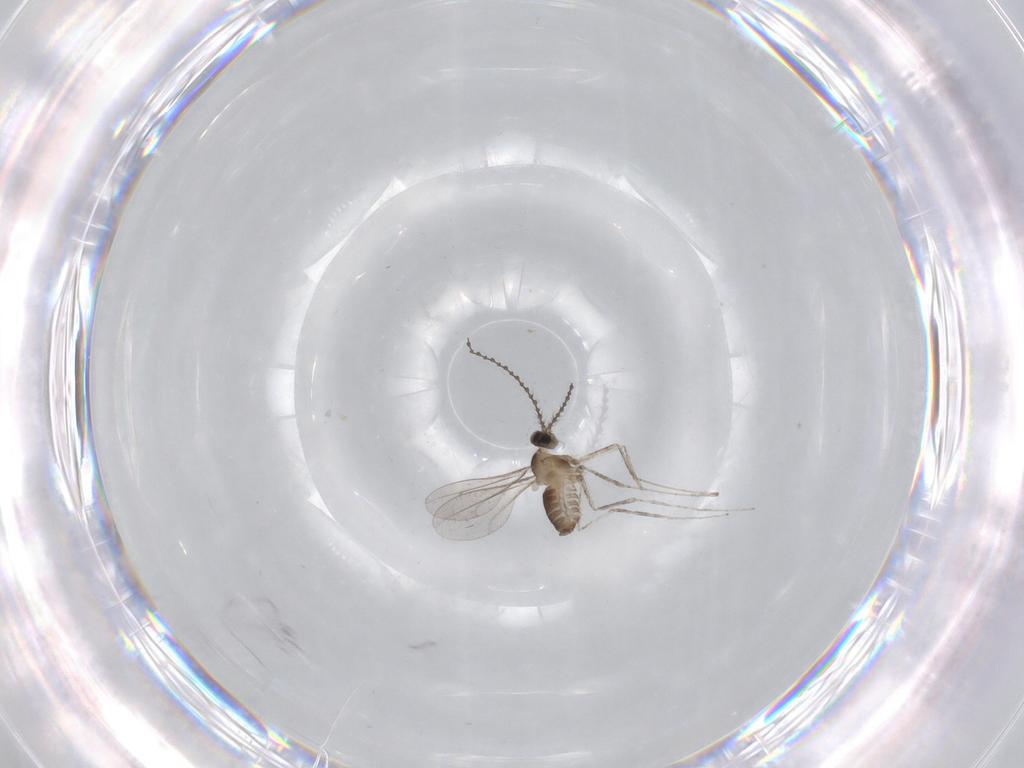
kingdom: Animalia
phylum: Arthropoda
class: Insecta
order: Diptera
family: Cecidomyiidae
